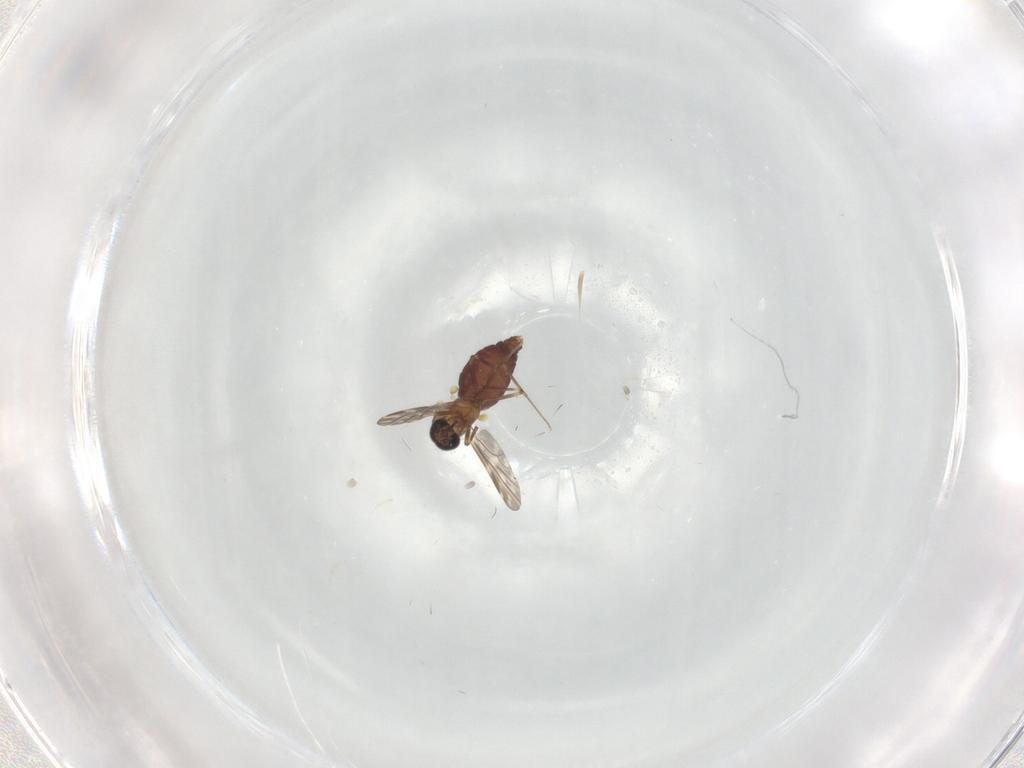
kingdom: Animalia
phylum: Arthropoda
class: Insecta
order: Diptera
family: Ceratopogonidae
